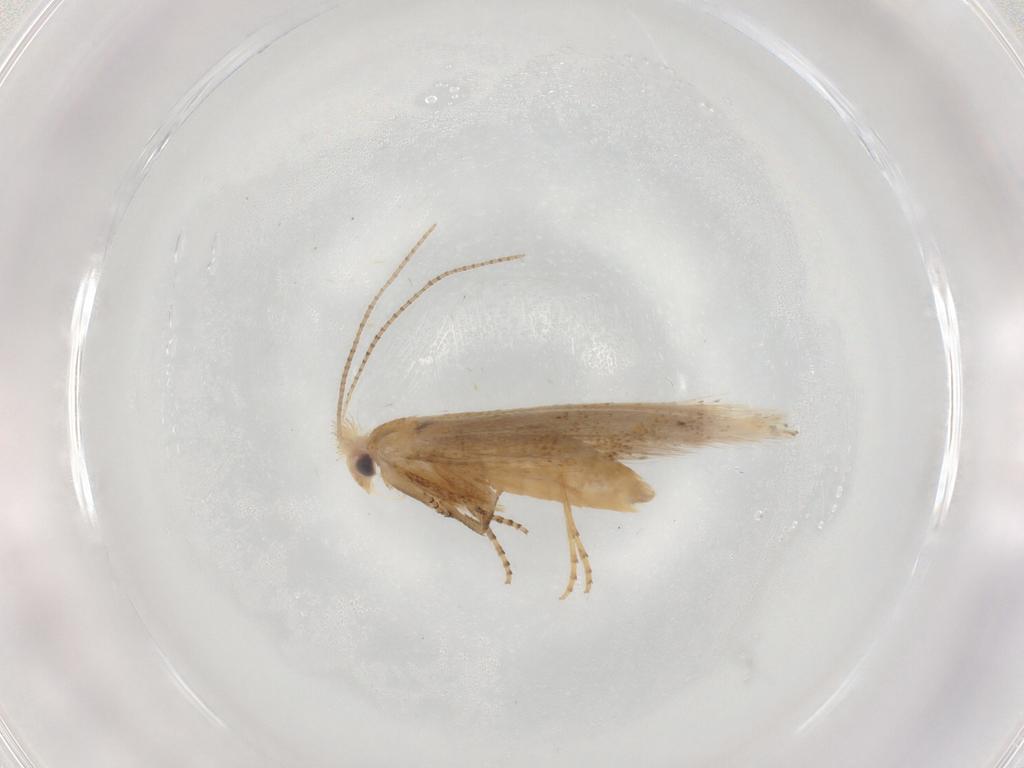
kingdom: Animalia
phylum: Arthropoda
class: Insecta
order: Lepidoptera
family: Bucculatricidae
